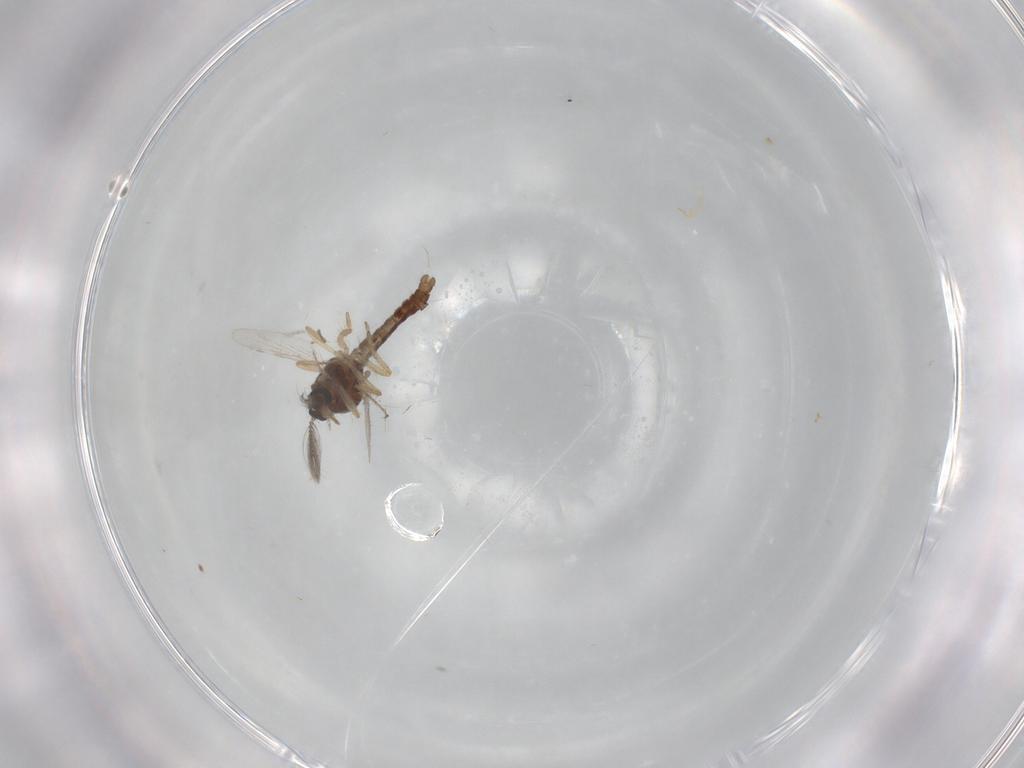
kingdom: Animalia
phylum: Arthropoda
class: Insecta
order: Diptera
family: Ceratopogonidae
